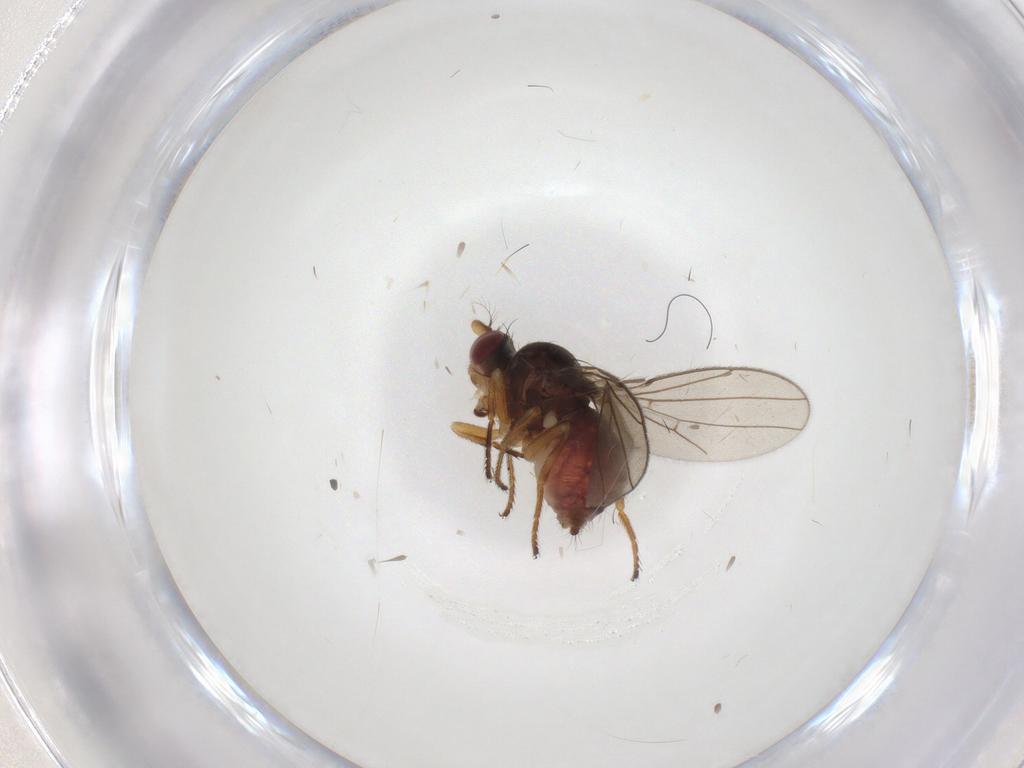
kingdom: Animalia
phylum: Arthropoda
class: Insecta
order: Diptera
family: Ephydridae
